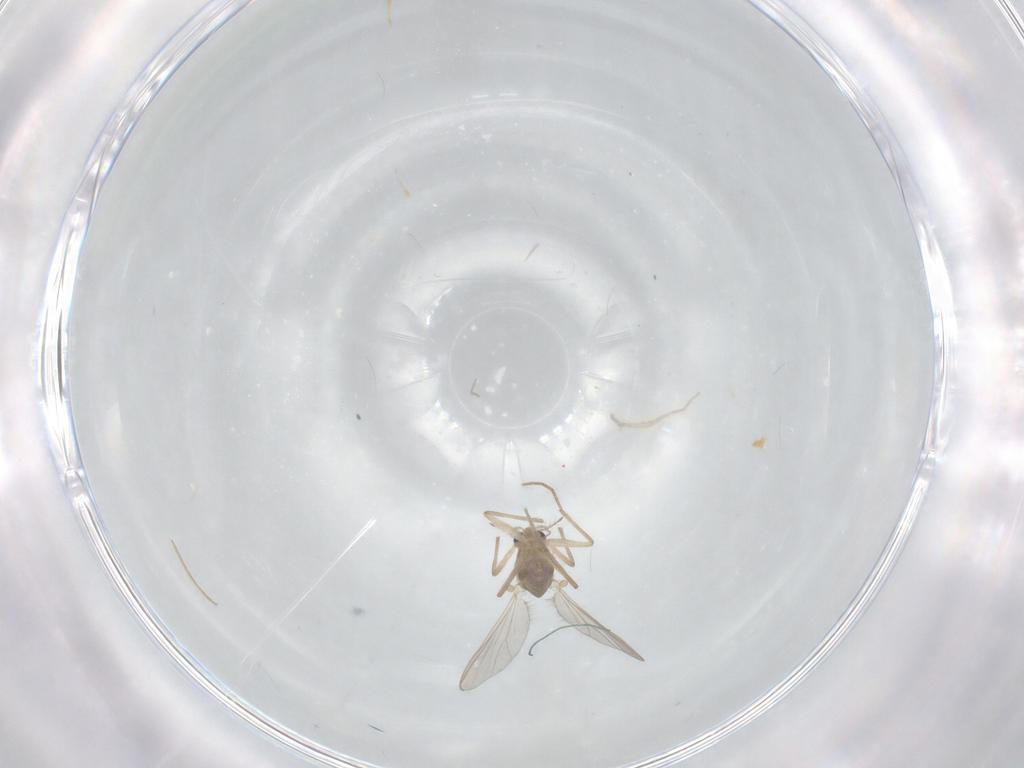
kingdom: Animalia
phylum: Arthropoda
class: Insecta
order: Diptera
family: Chironomidae
